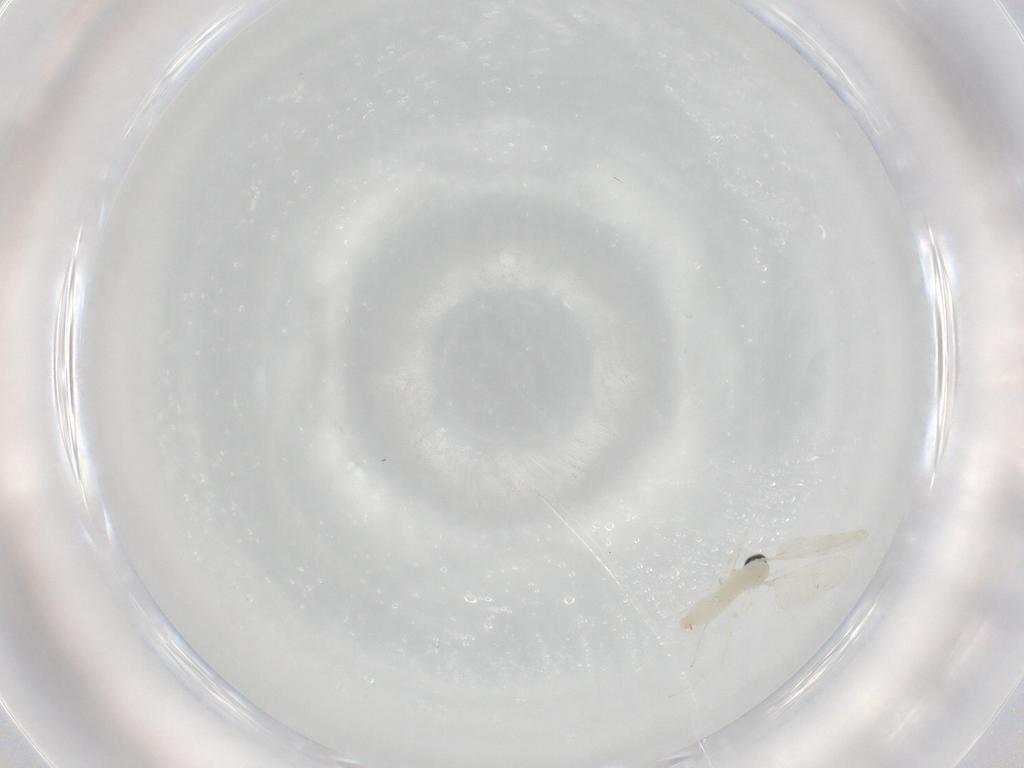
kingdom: Animalia
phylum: Arthropoda
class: Insecta
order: Diptera
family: Cecidomyiidae
